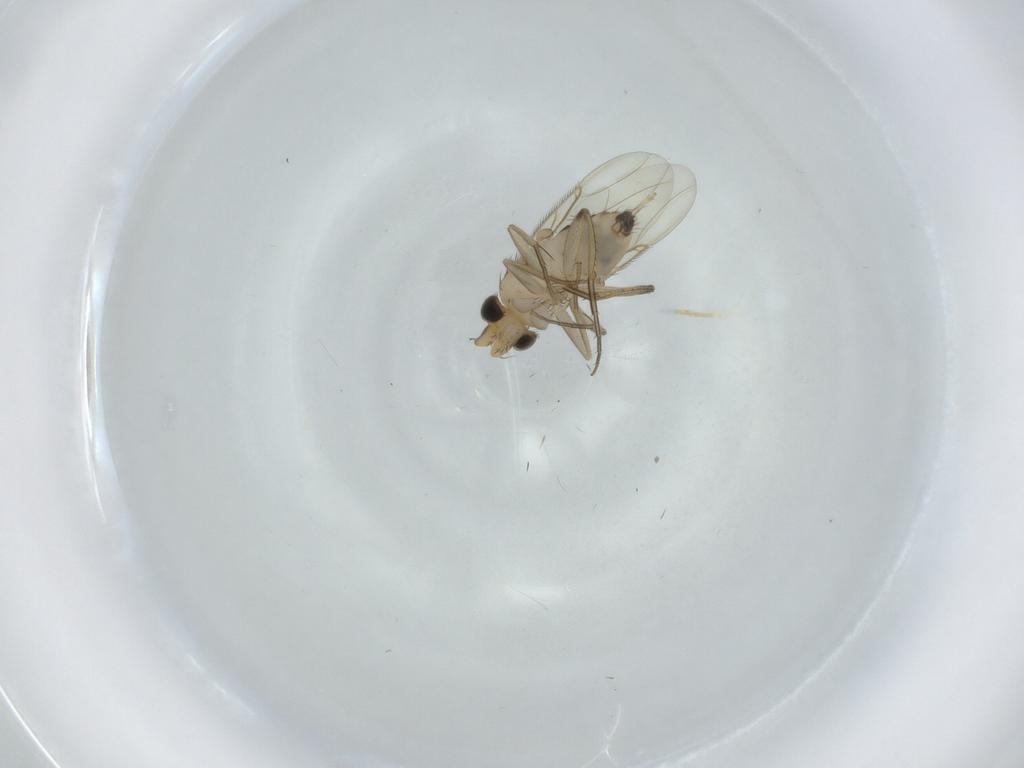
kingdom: Animalia
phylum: Arthropoda
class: Insecta
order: Diptera
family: Phoridae
